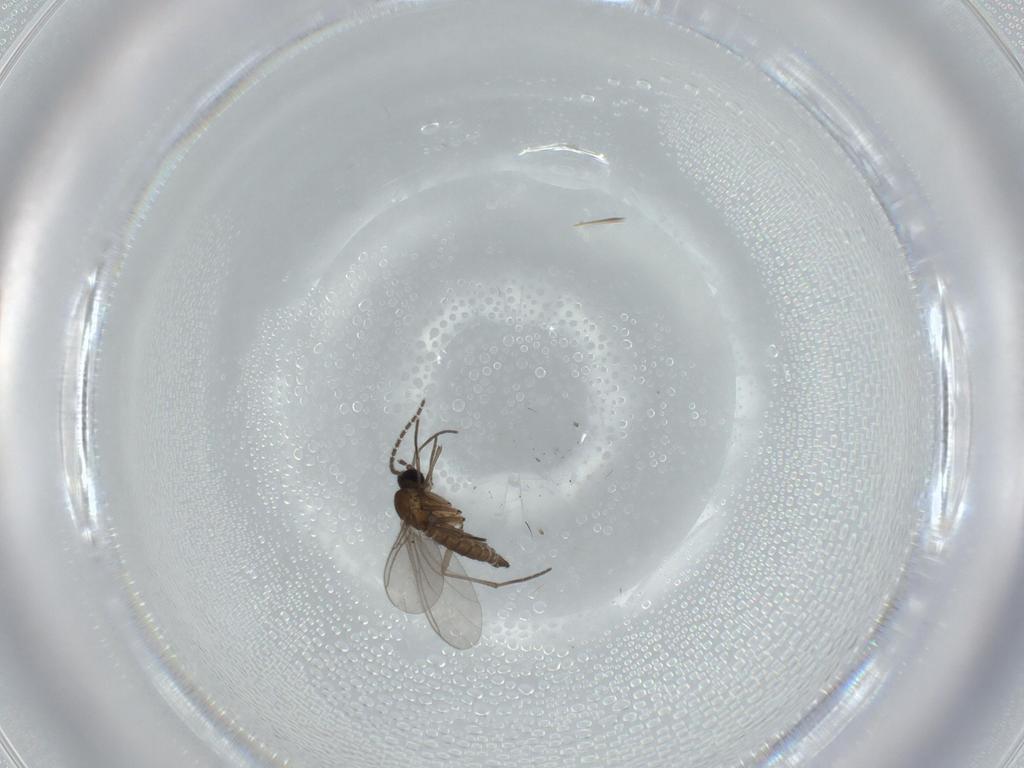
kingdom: Animalia
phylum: Arthropoda
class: Insecta
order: Diptera
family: Sciaridae
